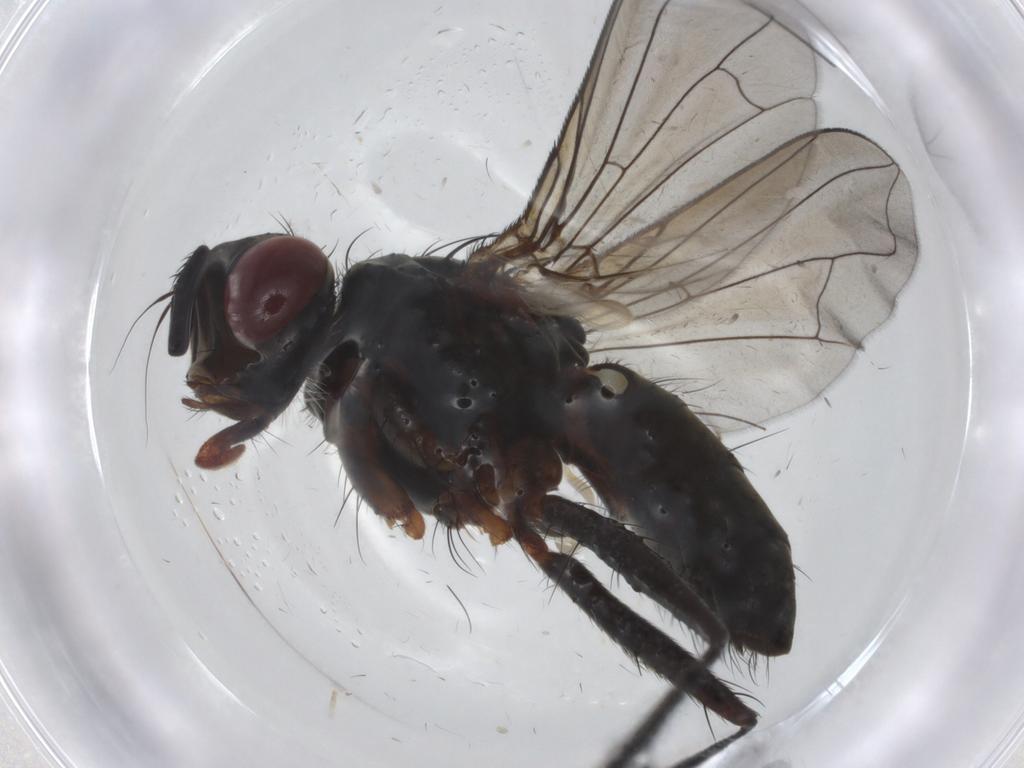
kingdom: Animalia
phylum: Arthropoda
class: Insecta
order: Diptera
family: Tachinidae
